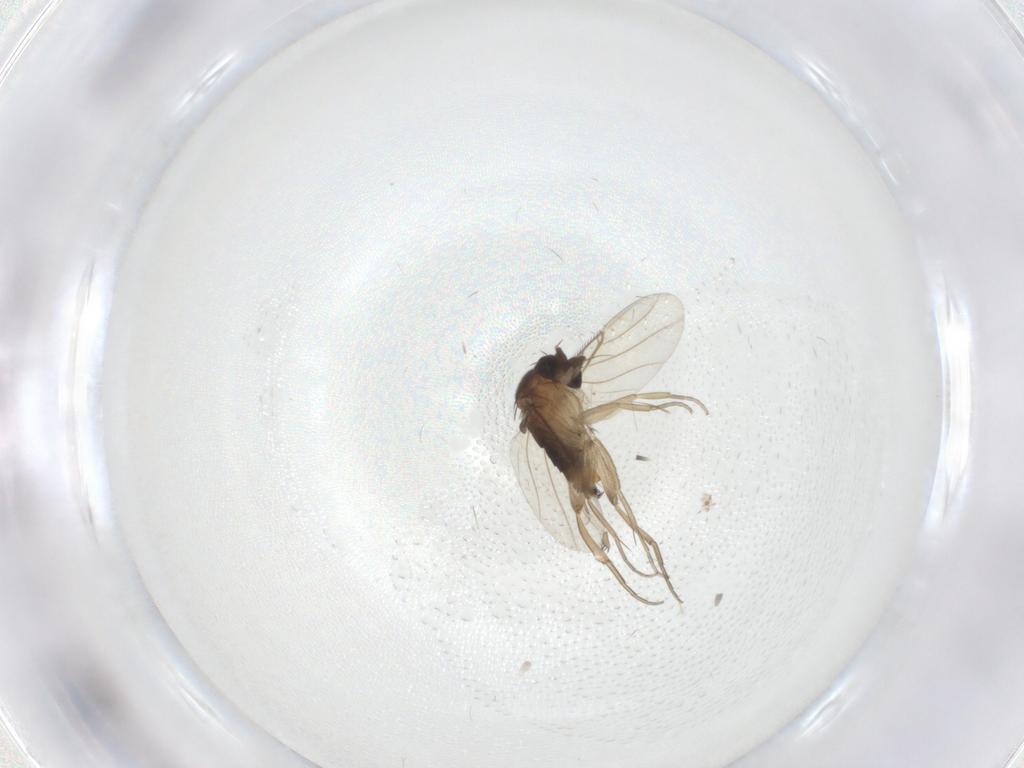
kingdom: Animalia
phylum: Arthropoda
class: Insecta
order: Diptera
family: Phoridae
